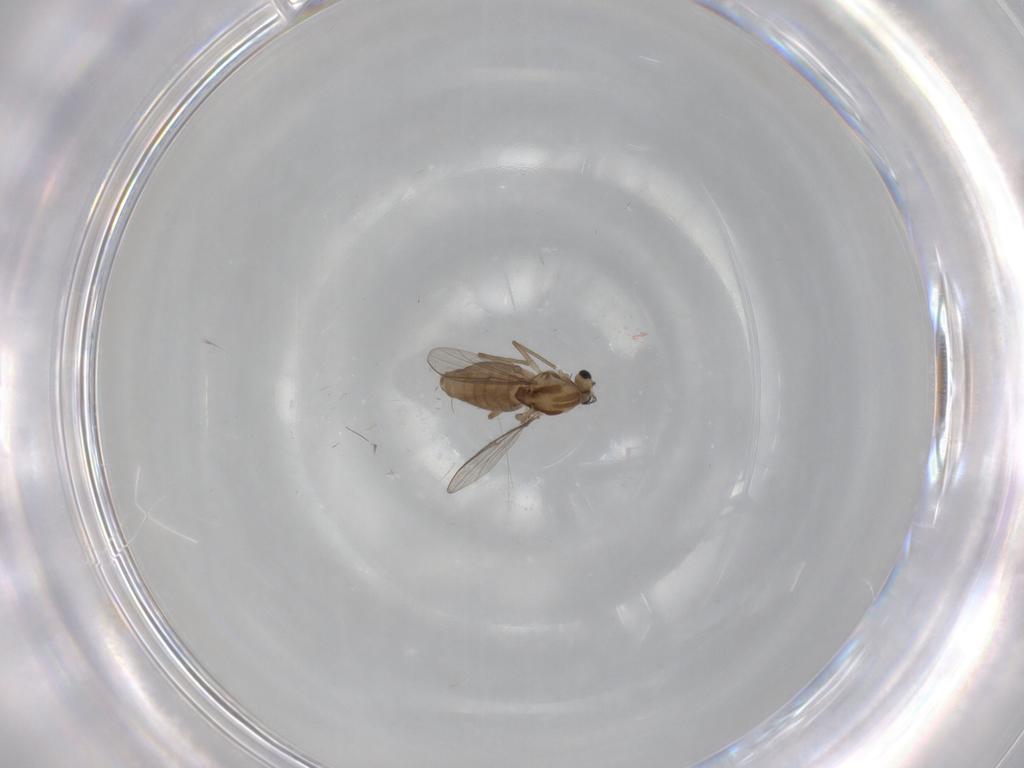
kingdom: Animalia
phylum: Arthropoda
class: Insecta
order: Diptera
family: Chironomidae
